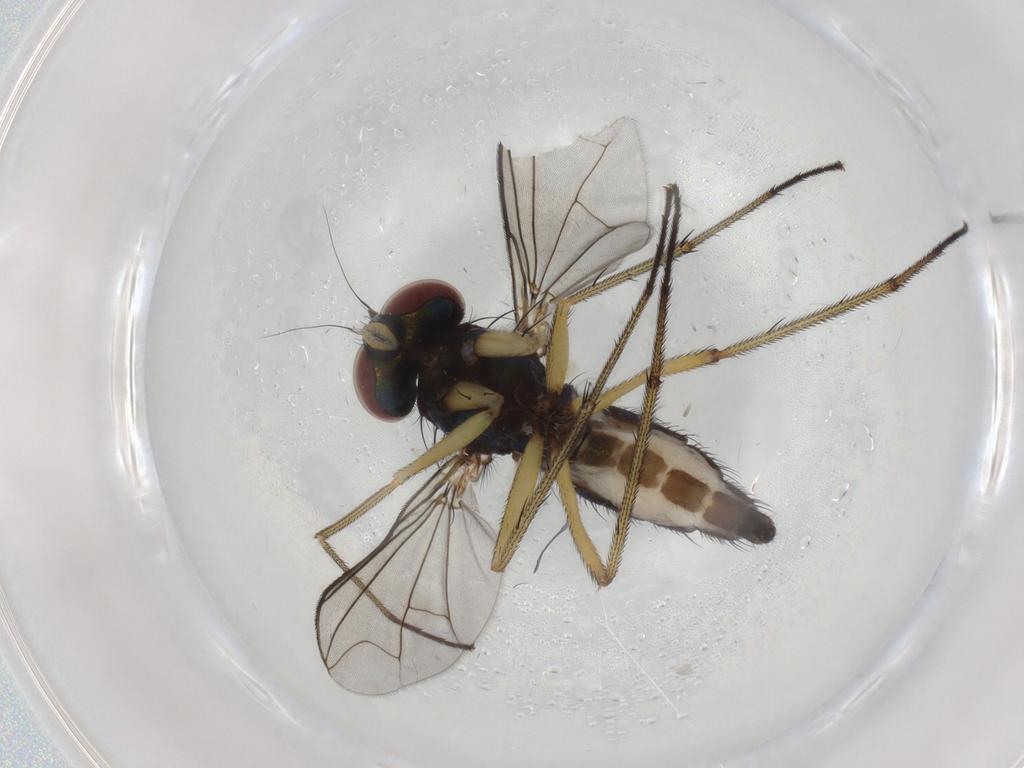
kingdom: Animalia
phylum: Arthropoda
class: Insecta
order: Diptera
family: Dolichopodidae
